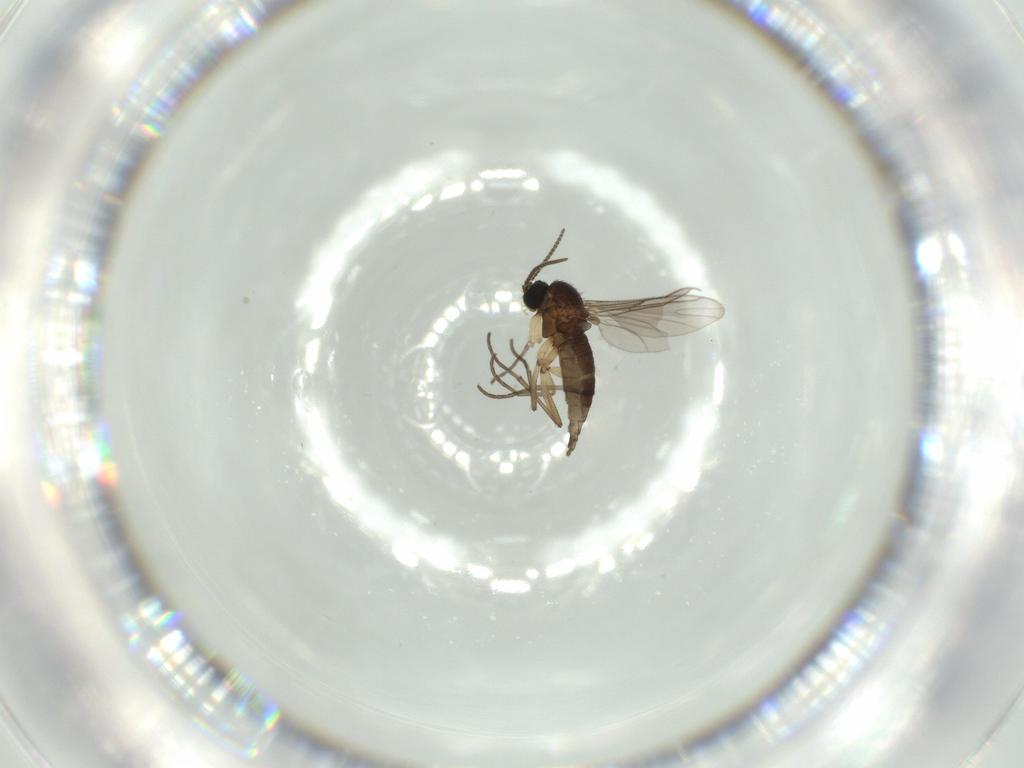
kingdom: Animalia
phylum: Arthropoda
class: Insecta
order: Diptera
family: Sciaridae
